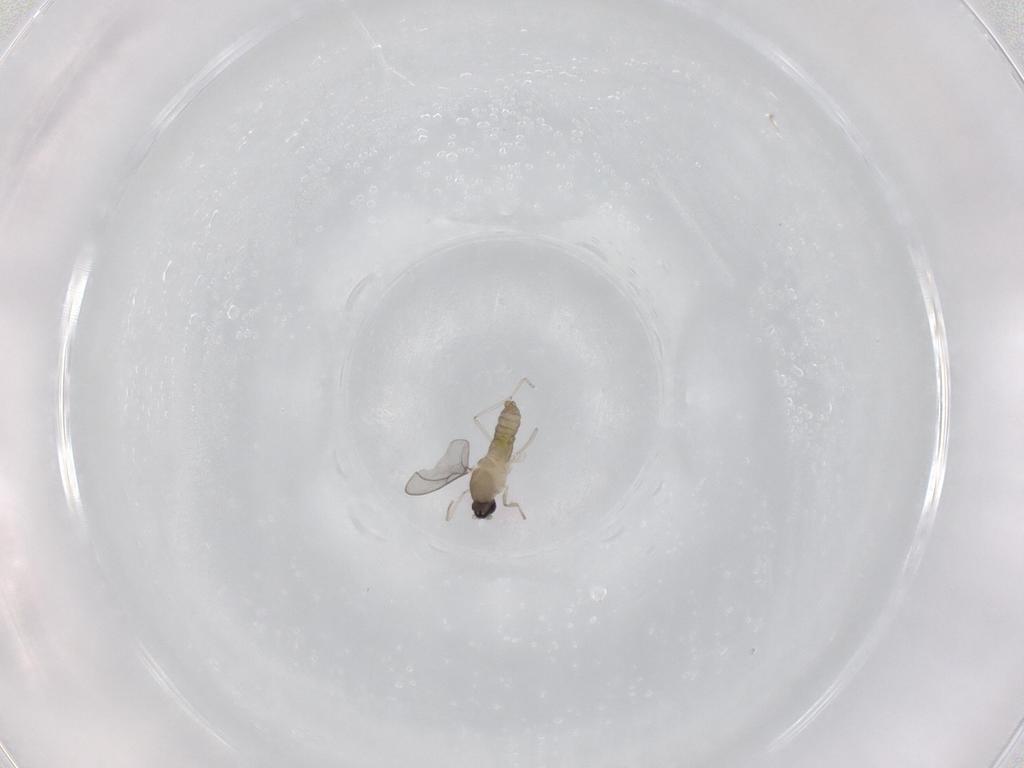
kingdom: Animalia
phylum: Arthropoda
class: Insecta
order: Diptera
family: Cecidomyiidae
